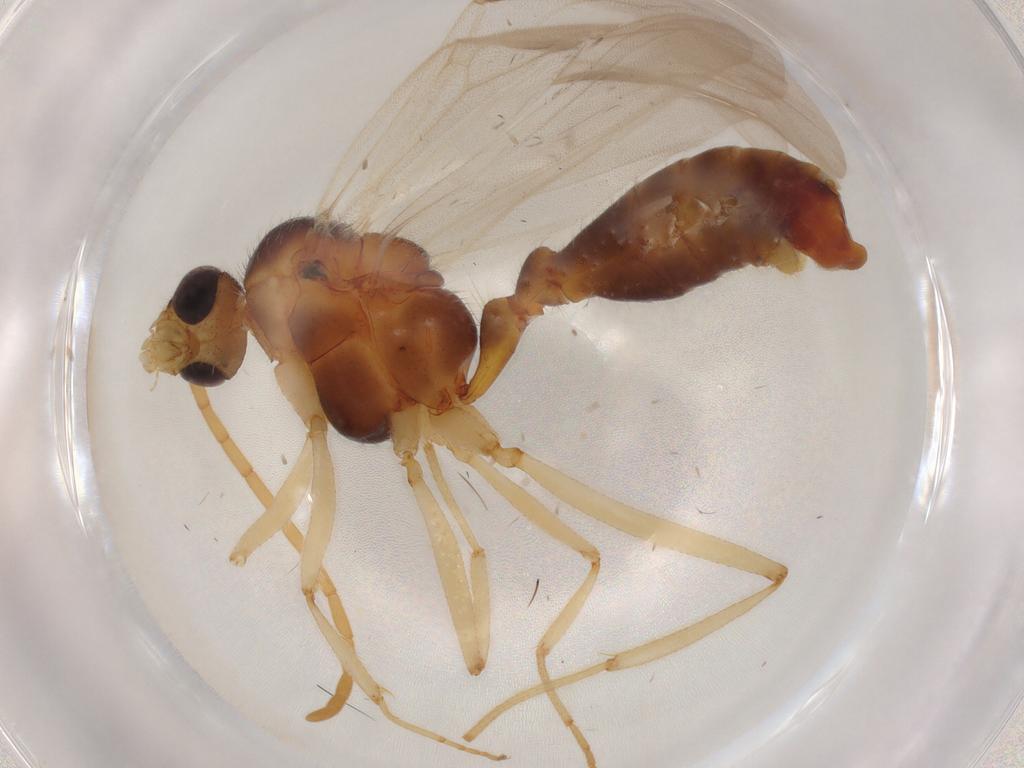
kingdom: Animalia
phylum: Arthropoda
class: Insecta
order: Hymenoptera
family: Formicidae
